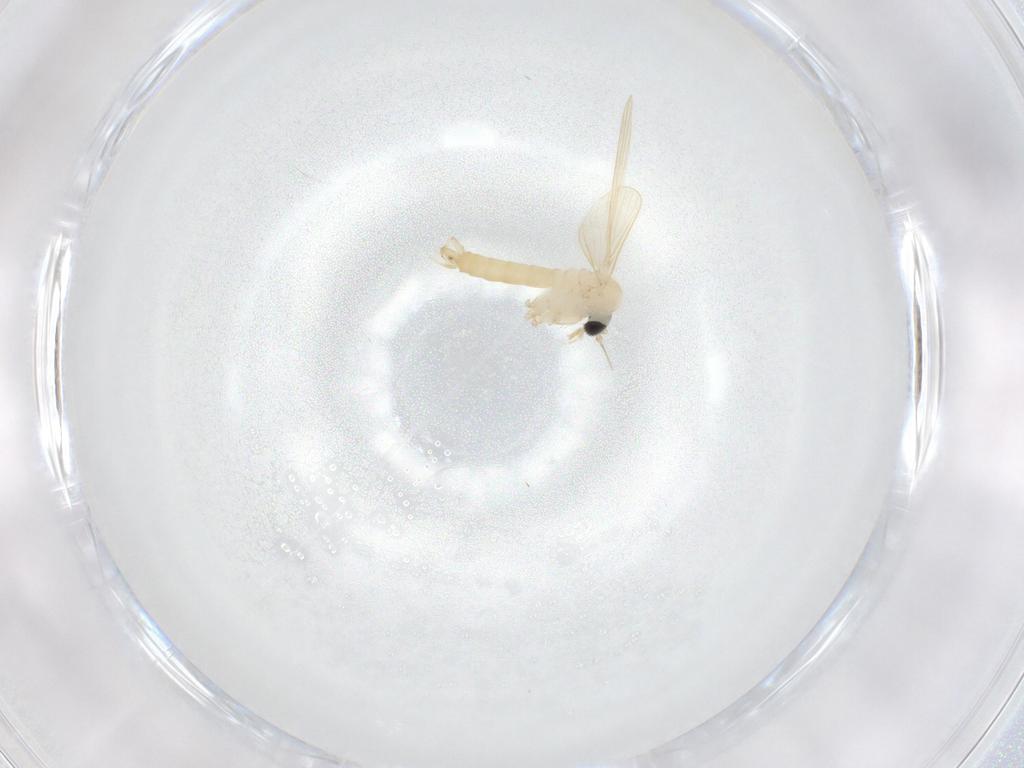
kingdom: Animalia
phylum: Arthropoda
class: Insecta
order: Diptera
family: Psychodidae
